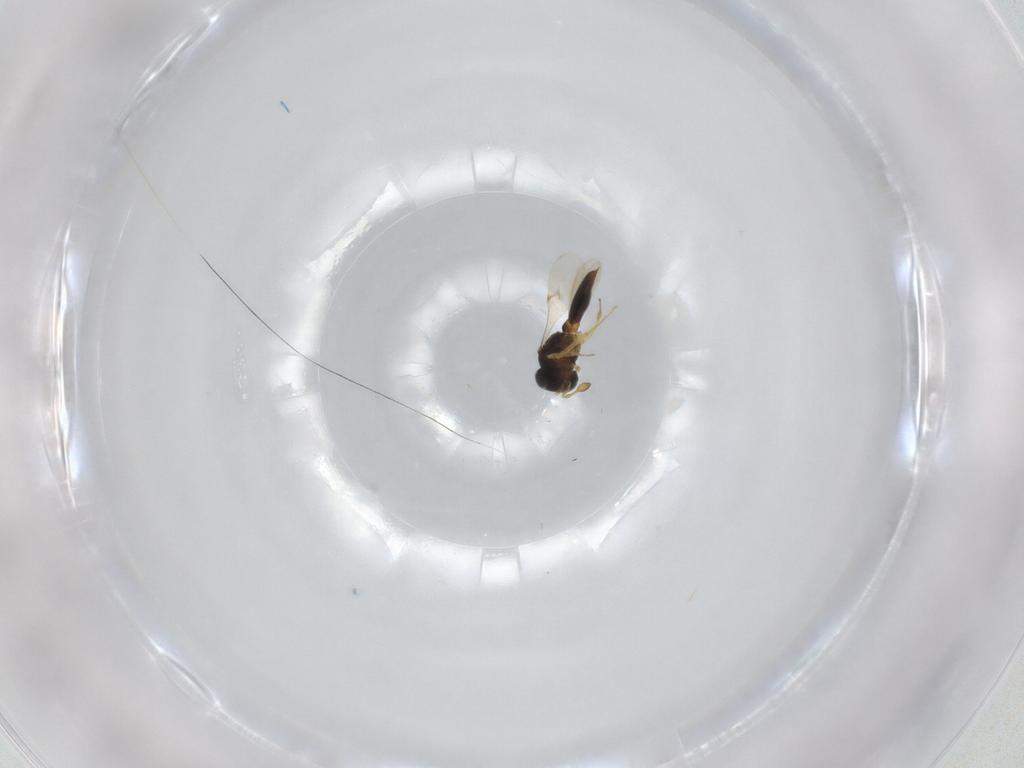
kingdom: Animalia
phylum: Arthropoda
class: Insecta
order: Hymenoptera
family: Scelionidae
